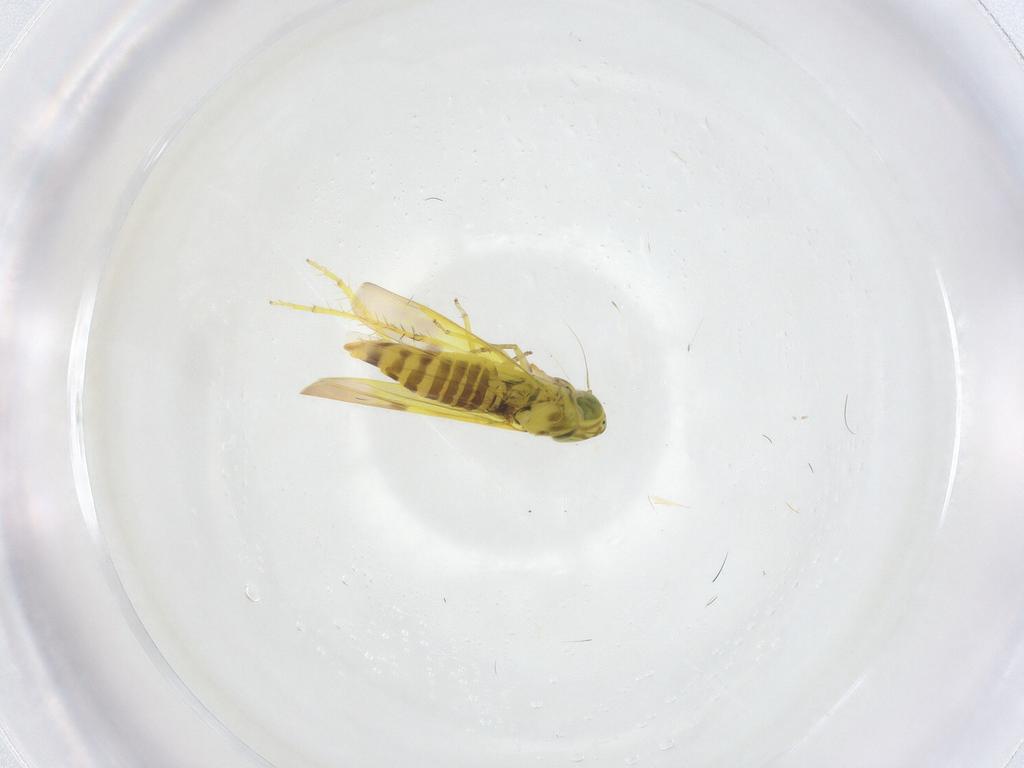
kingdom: Animalia
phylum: Arthropoda
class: Insecta
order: Hemiptera
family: Cicadellidae
